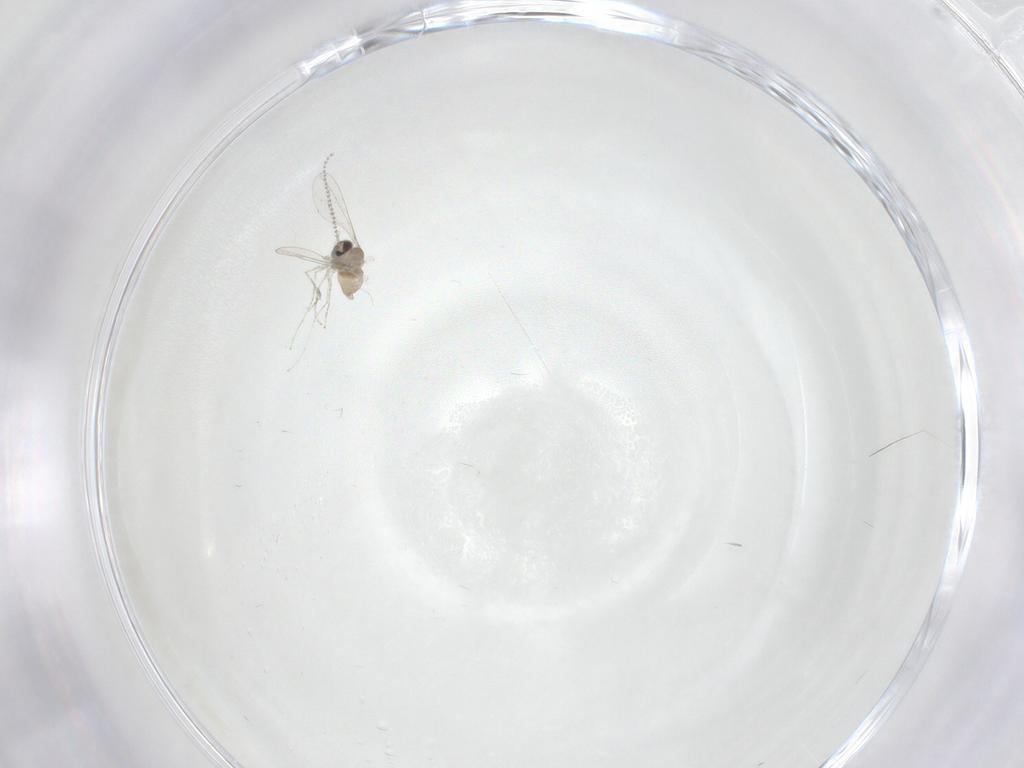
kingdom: Animalia
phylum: Arthropoda
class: Insecta
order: Diptera
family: Cecidomyiidae
